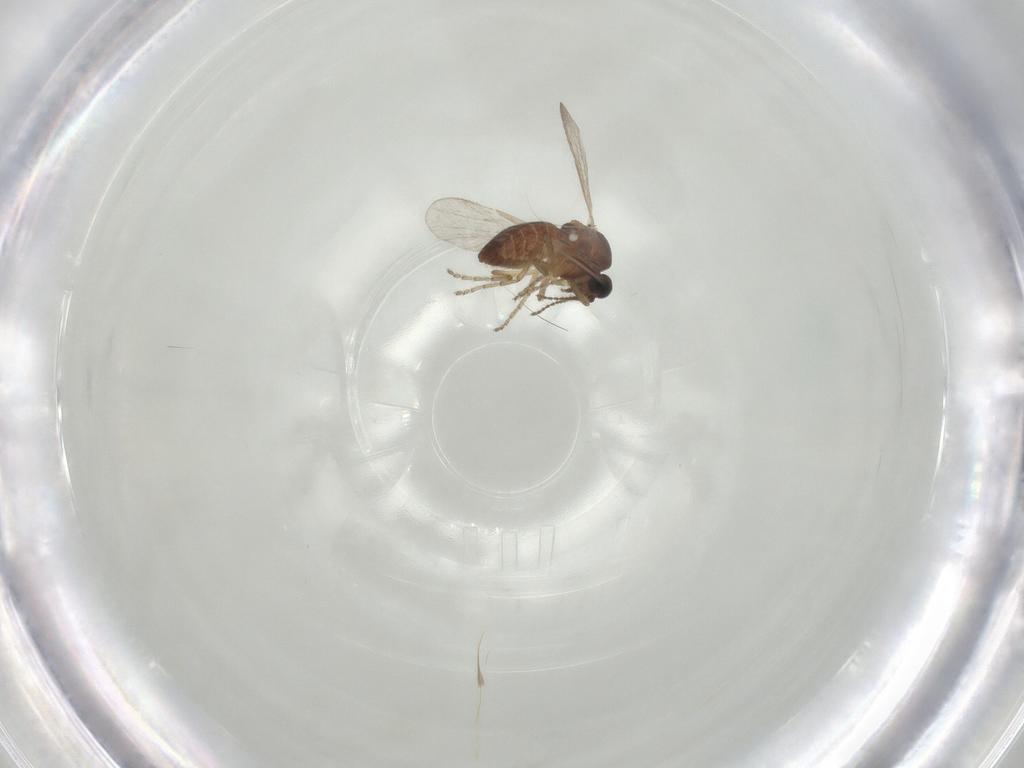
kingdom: Animalia
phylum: Arthropoda
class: Insecta
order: Diptera
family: Ceratopogonidae
